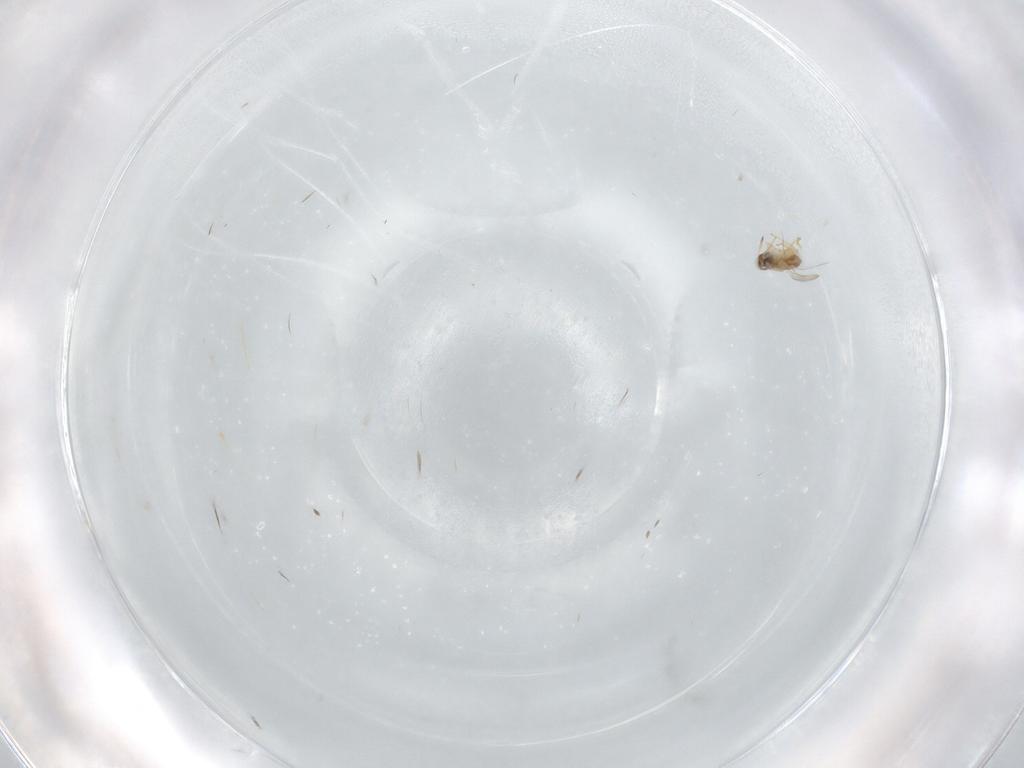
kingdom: Animalia
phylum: Arthropoda
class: Insecta
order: Hymenoptera
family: Aphelinidae
